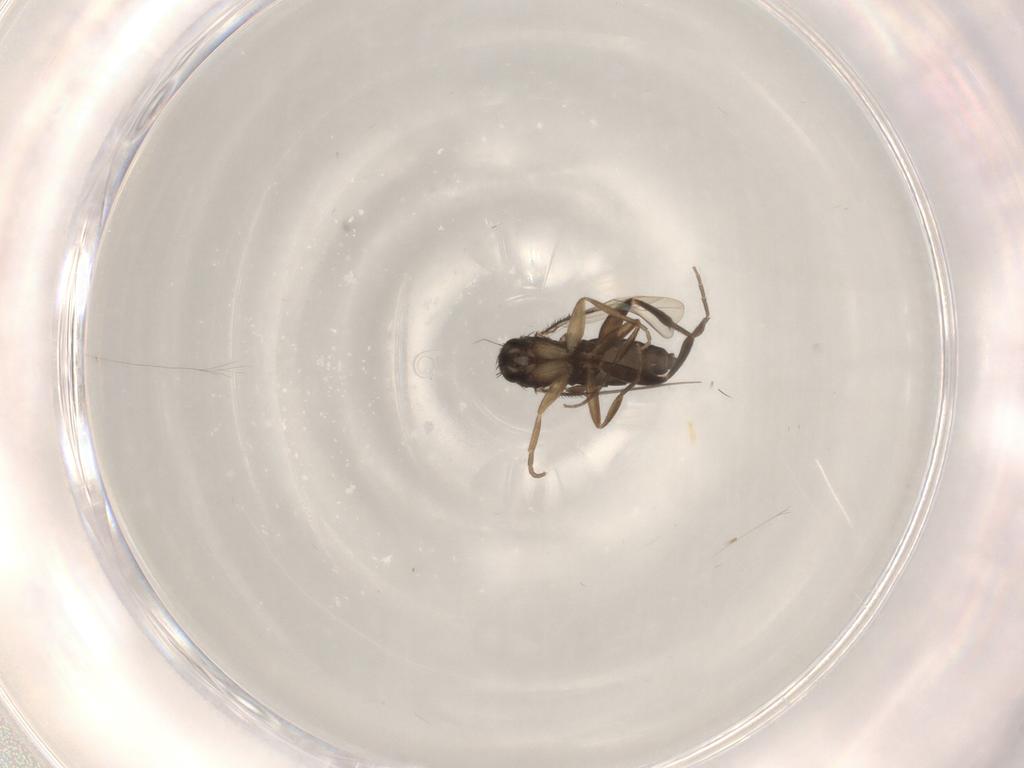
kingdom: Animalia
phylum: Arthropoda
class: Insecta
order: Diptera
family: Phoridae
